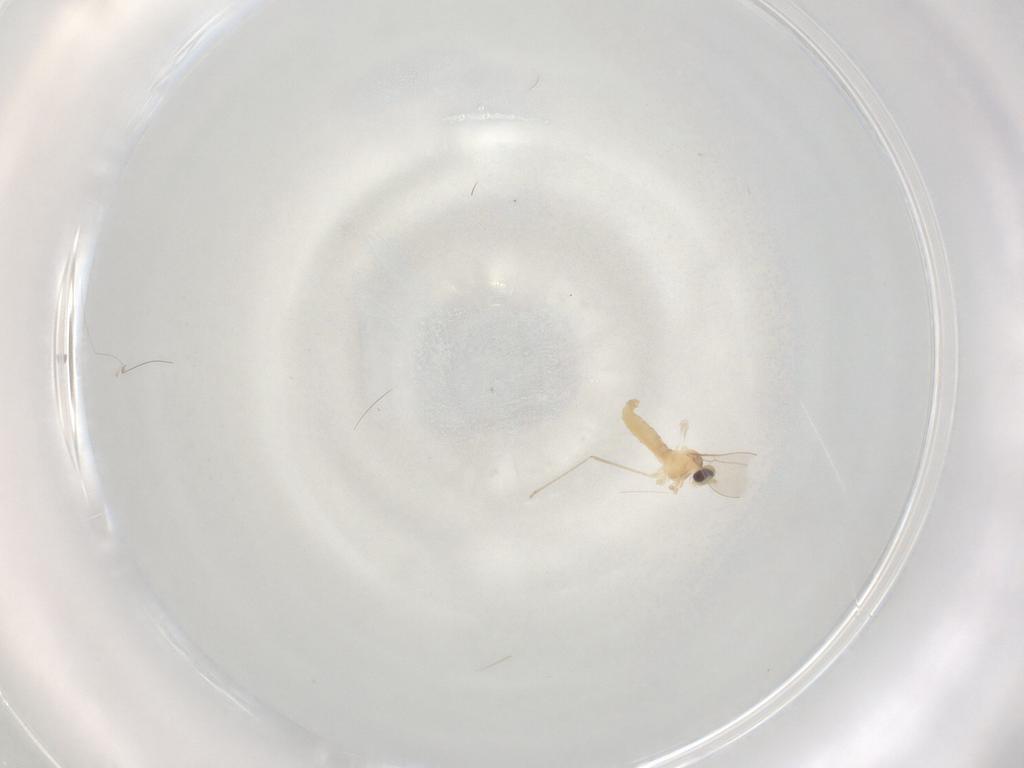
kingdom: Animalia
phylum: Arthropoda
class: Insecta
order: Diptera
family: Cecidomyiidae
